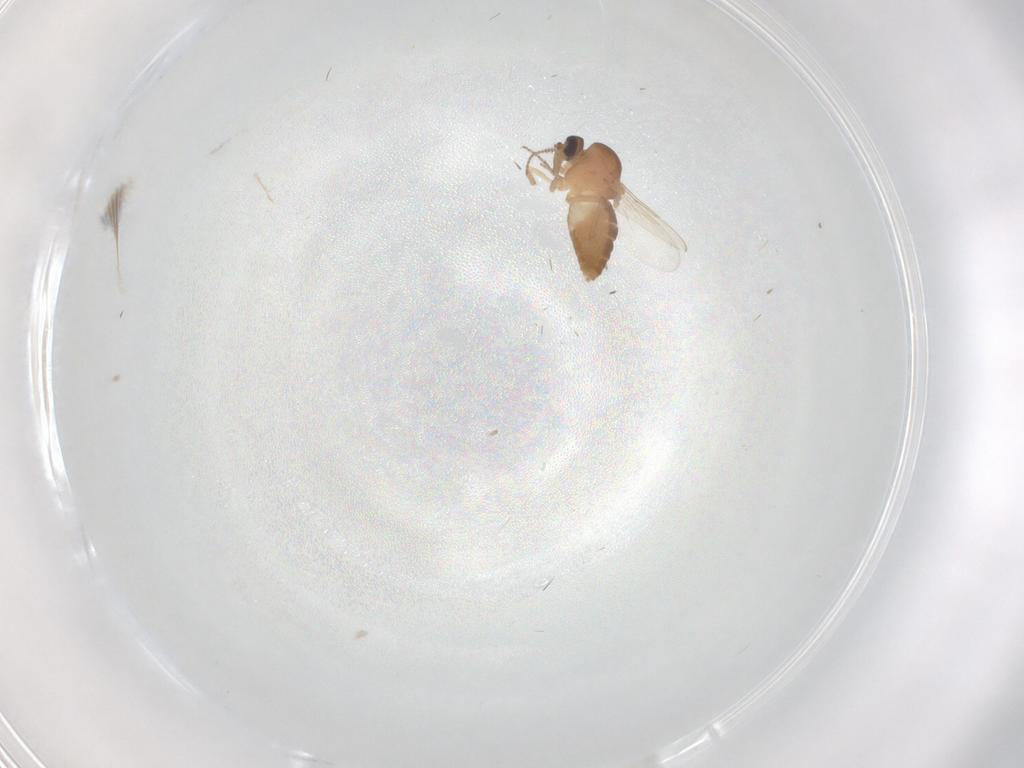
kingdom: Animalia
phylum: Arthropoda
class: Insecta
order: Diptera
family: Ceratopogonidae
